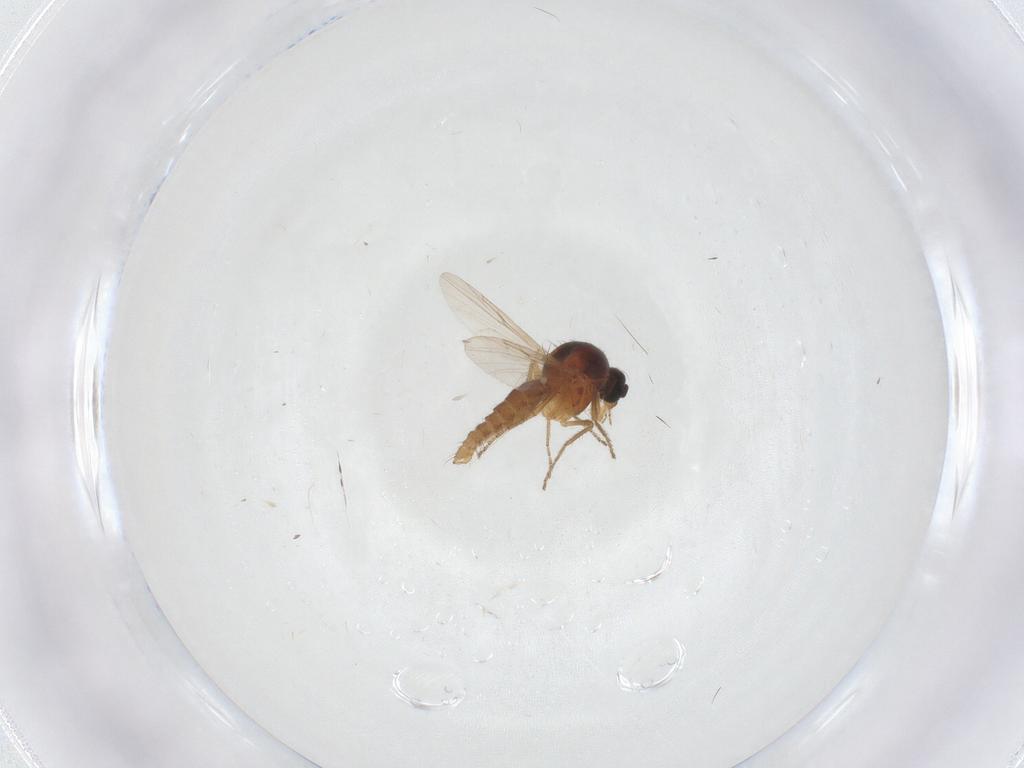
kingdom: Animalia
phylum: Arthropoda
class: Insecta
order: Diptera
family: Ceratopogonidae
